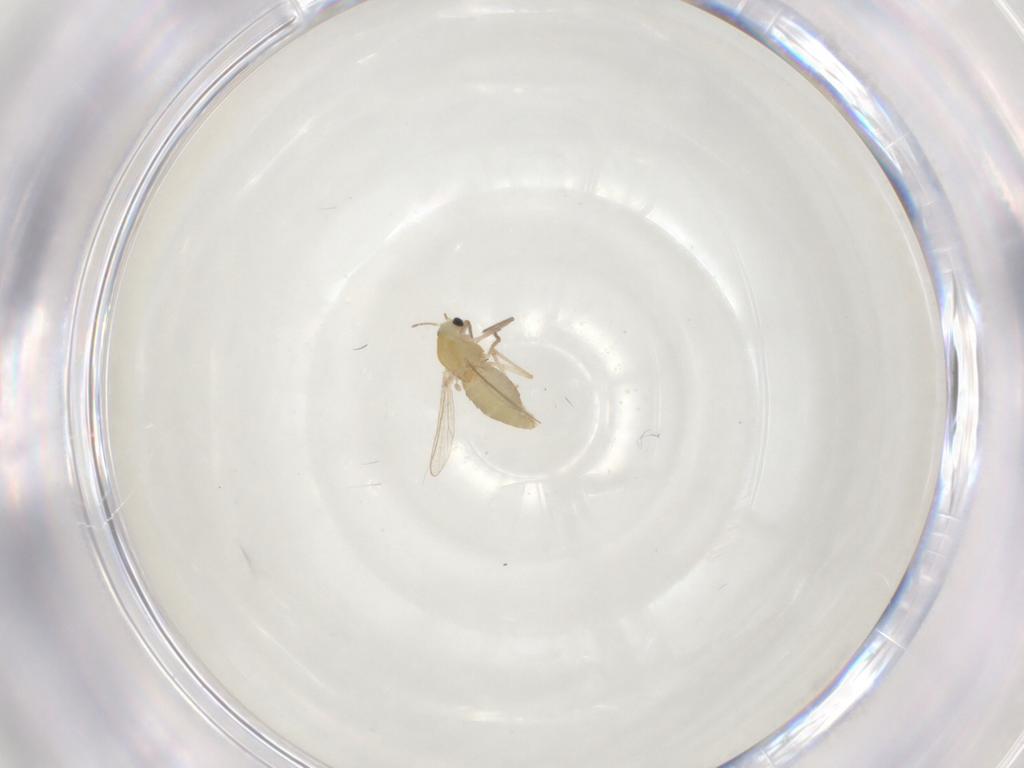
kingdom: Animalia
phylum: Arthropoda
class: Insecta
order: Diptera
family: Chironomidae
